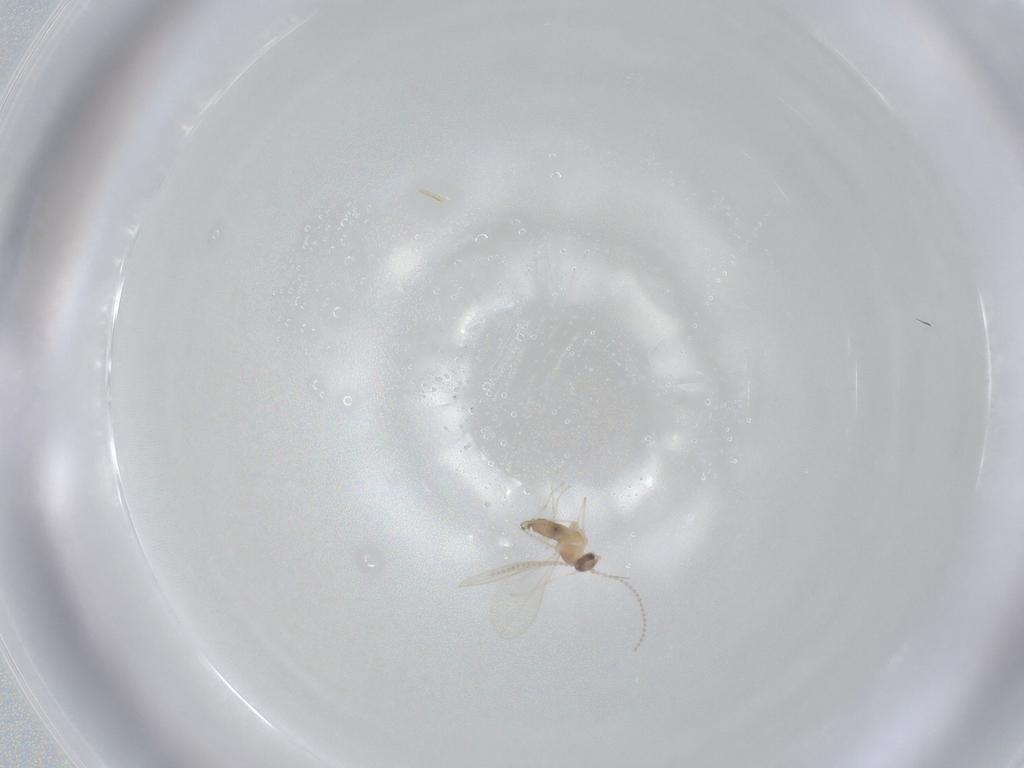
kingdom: Animalia
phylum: Arthropoda
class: Insecta
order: Diptera
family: Cecidomyiidae
